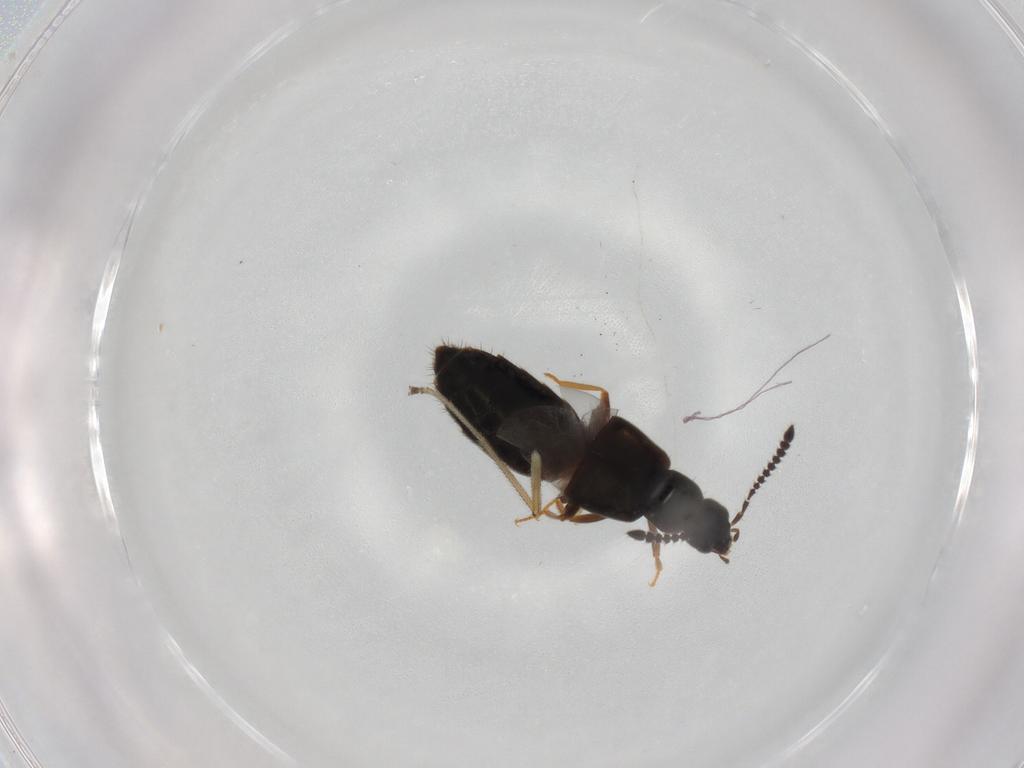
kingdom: Animalia
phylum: Arthropoda
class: Insecta
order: Coleoptera
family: Staphylinidae
